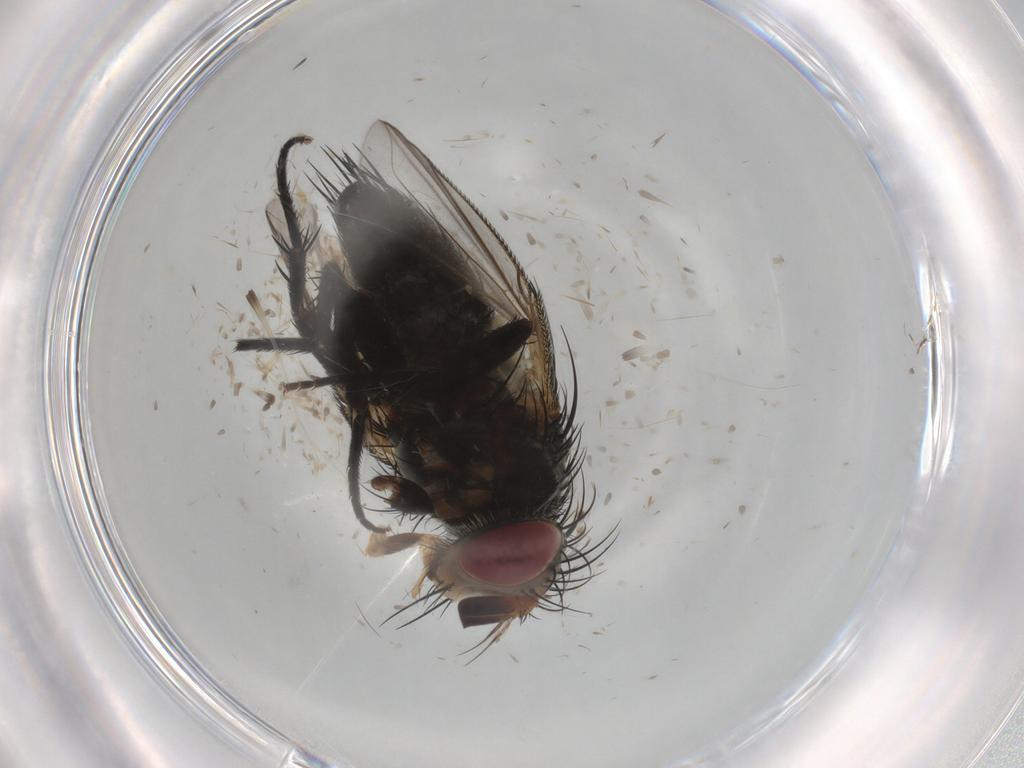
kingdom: Animalia
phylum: Arthropoda
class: Insecta
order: Diptera
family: Tachinidae
